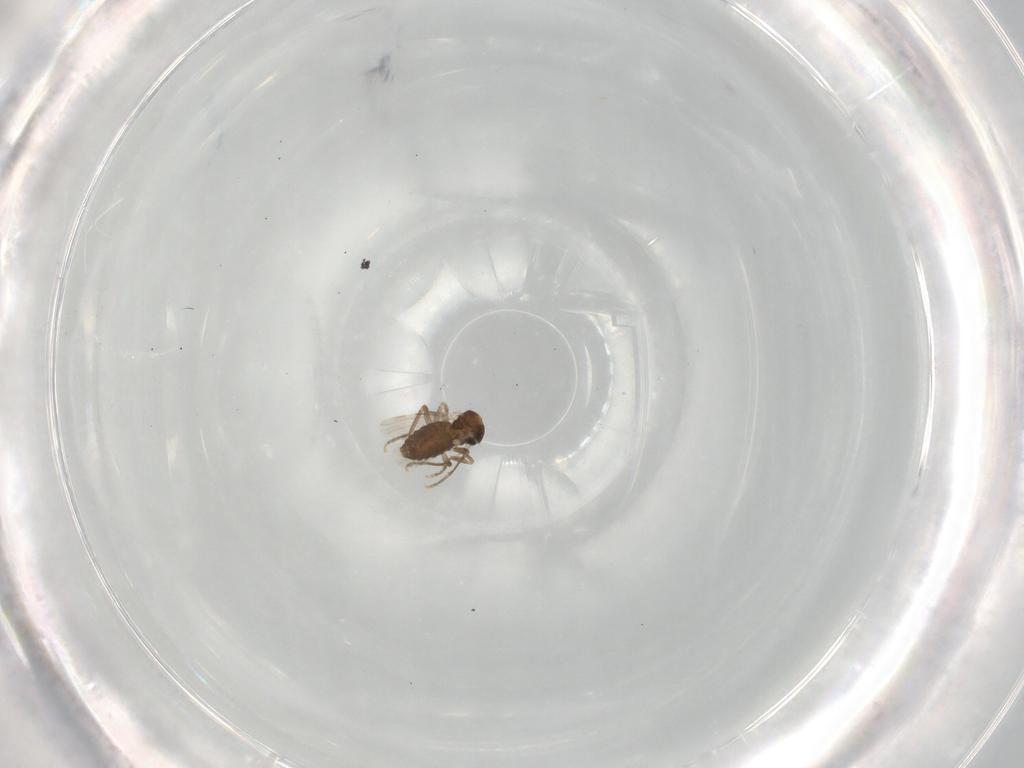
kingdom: Animalia
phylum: Arthropoda
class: Insecta
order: Diptera
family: Ceratopogonidae
